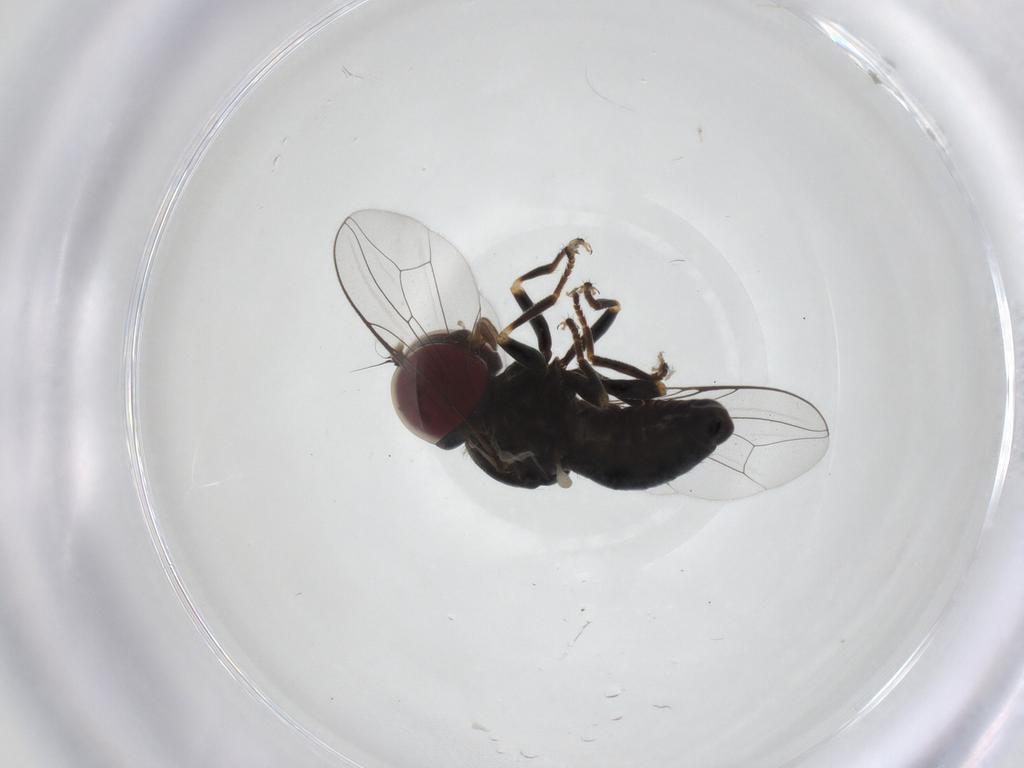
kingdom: Animalia
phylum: Arthropoda
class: Insecta
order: Diptera
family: Pipunculidae
